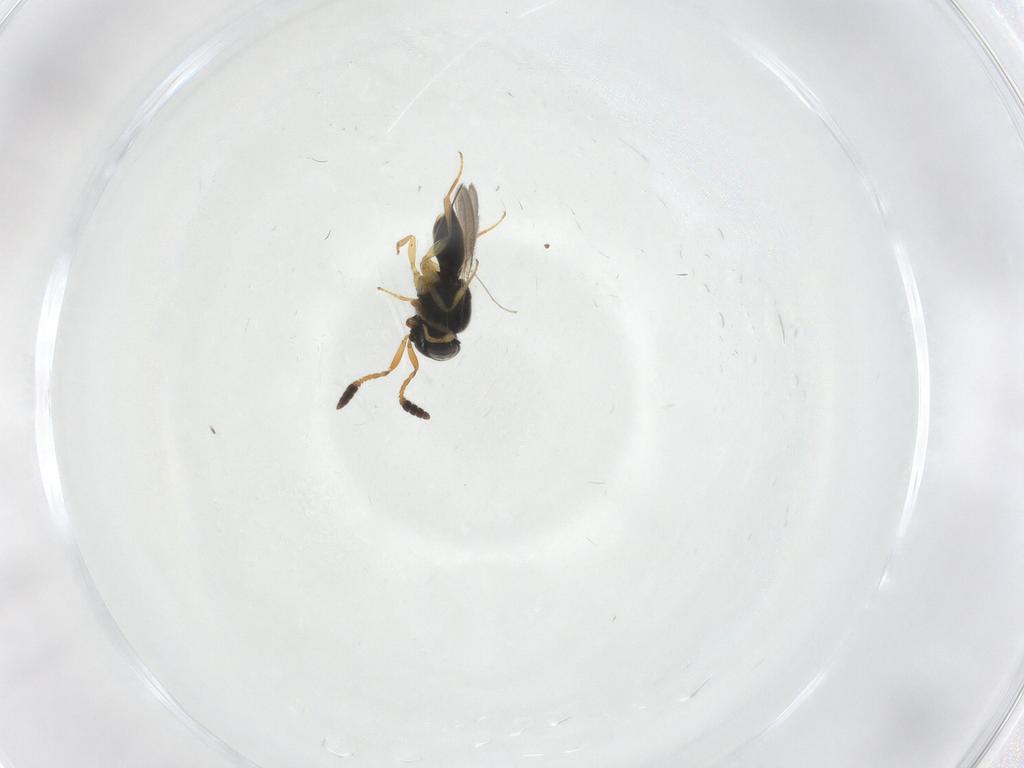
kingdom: Animalia
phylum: Arthropoda
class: Insecta
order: Hymenoptera
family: Scelionidae
